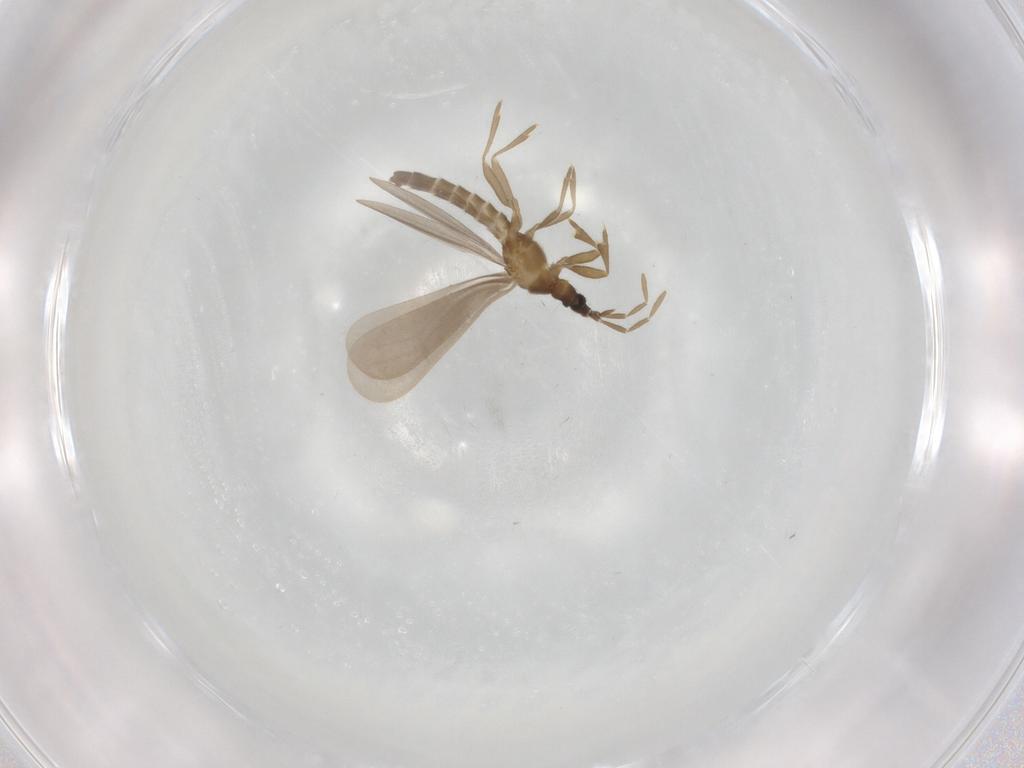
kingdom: Animalia
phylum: Arthropoda
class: Insecta
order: Hemiptera
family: Enicocephalidae
